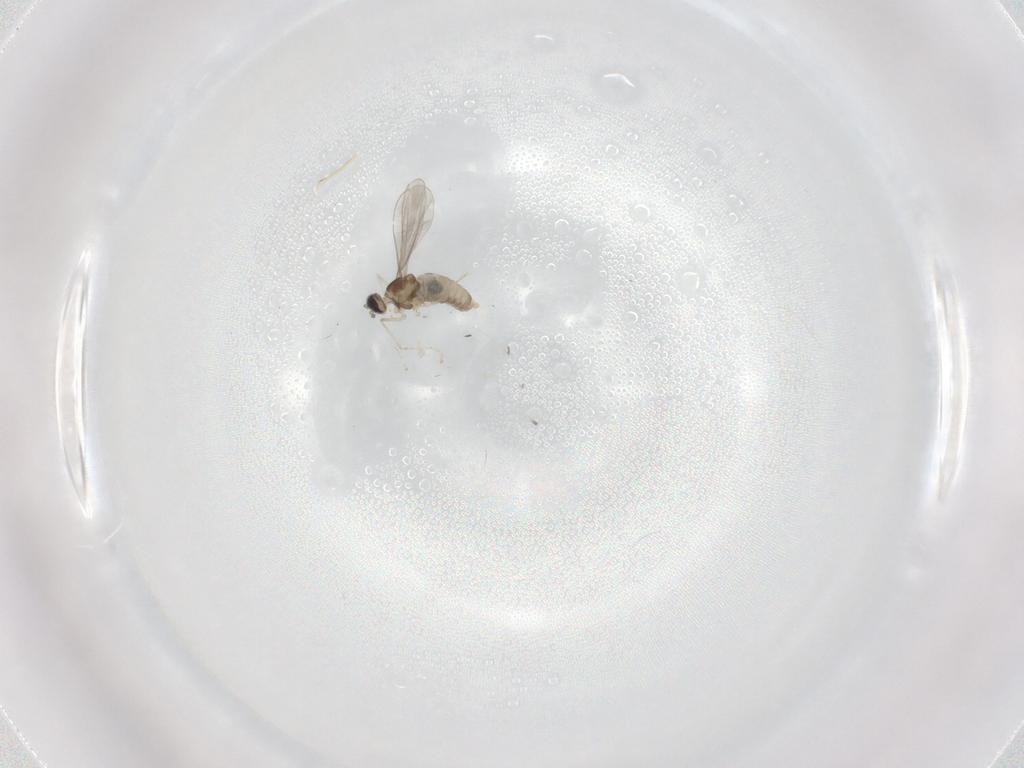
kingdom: Animalia
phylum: Arthropoda
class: Insecta
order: Diptera
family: Cecidomyiidae
